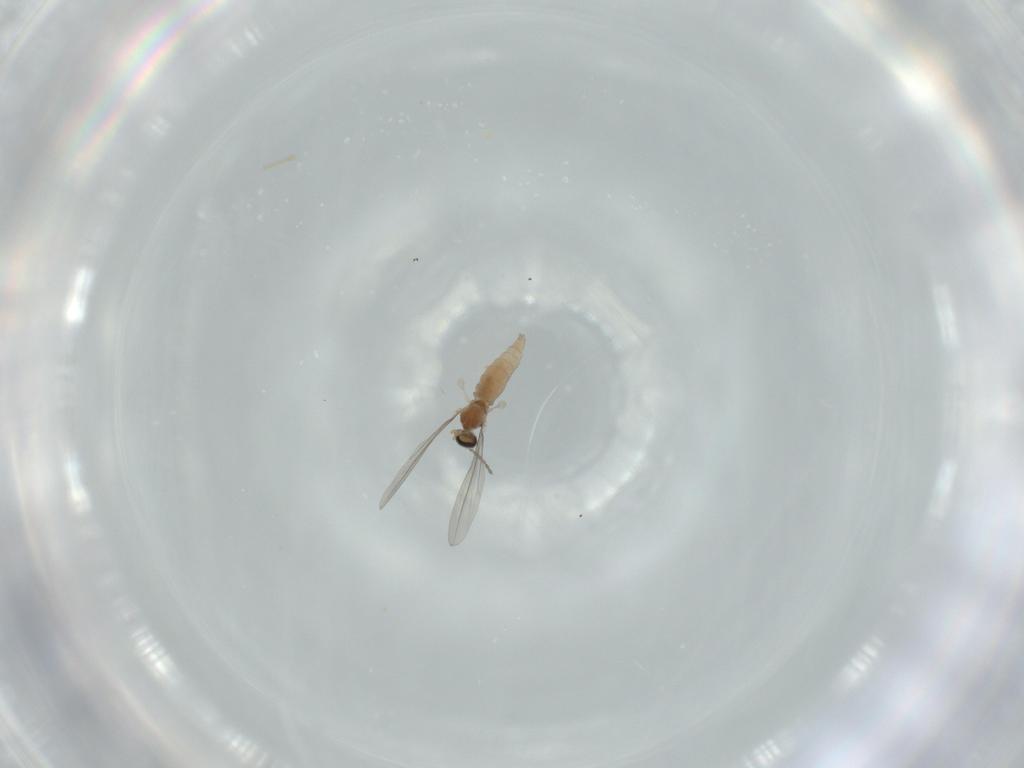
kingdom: Animalia
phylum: Arthropoda
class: Insecta
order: Diptera
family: Cecidomyiidae
